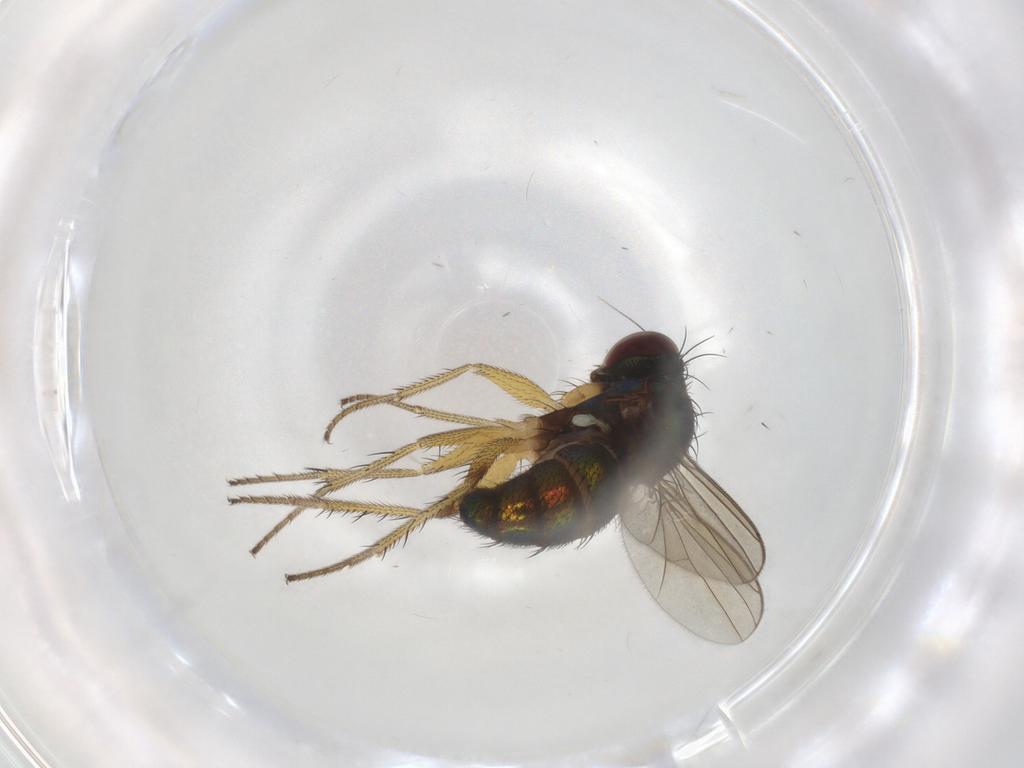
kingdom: Animalia
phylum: Arthropoda
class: Insecta
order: Diptera
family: Dolichopodidae
